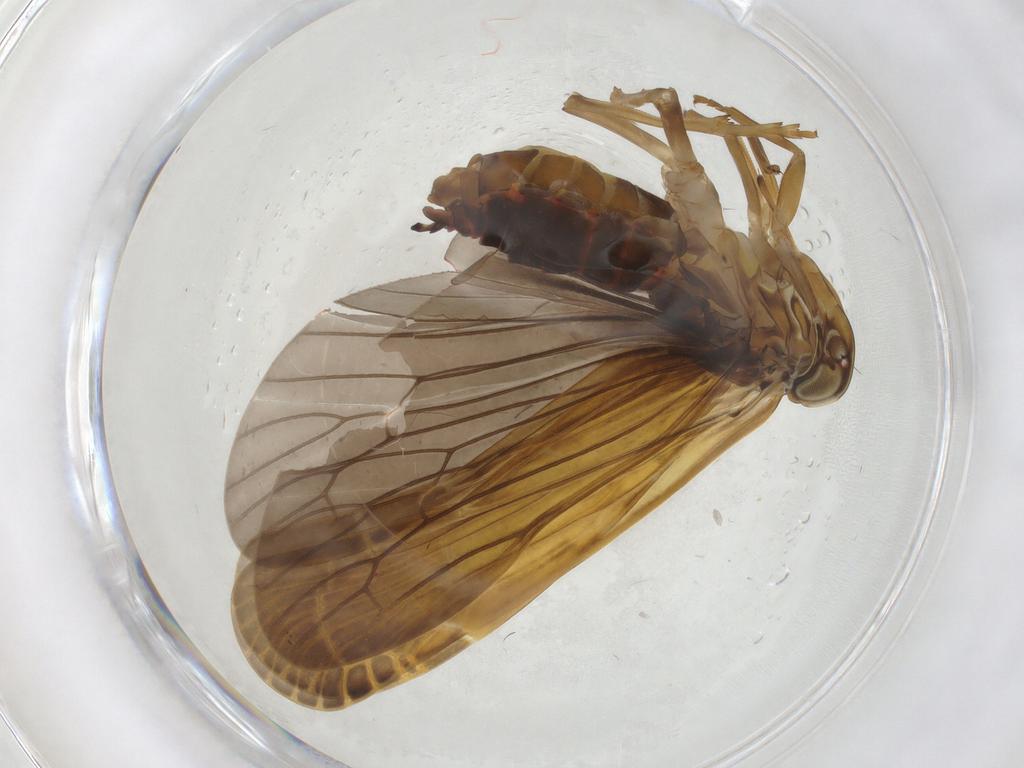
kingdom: Animalia
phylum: Arthropoda
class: Insecta
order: Hemiptera
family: Achilidae
